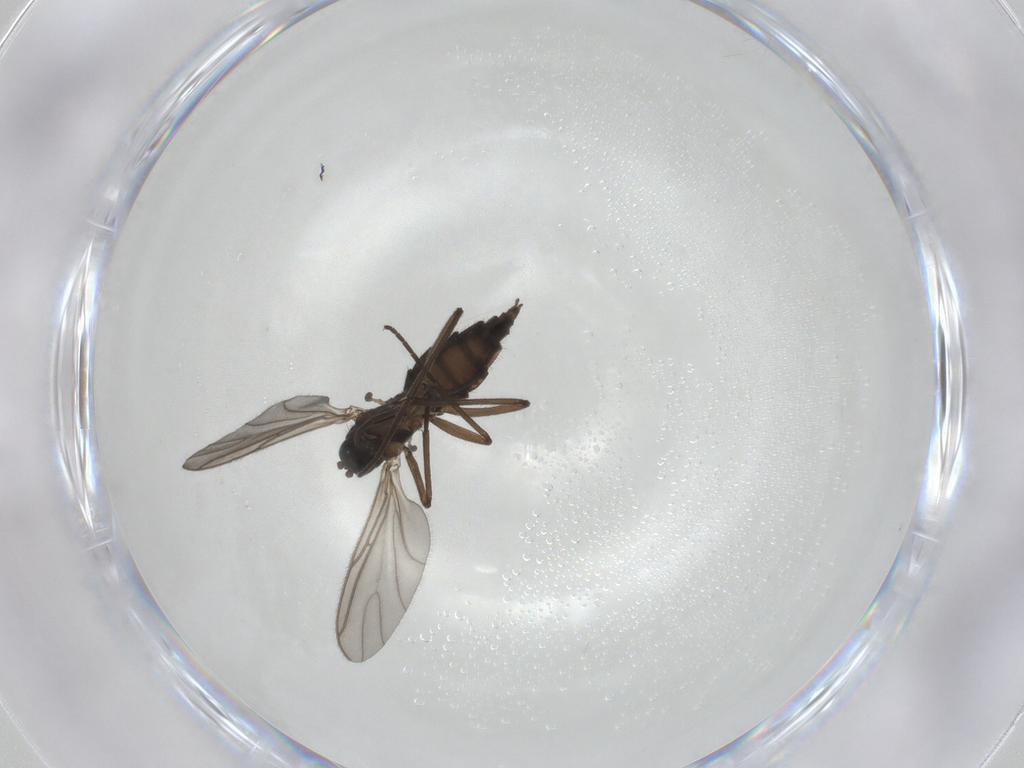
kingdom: Animalia
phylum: Arthropoda
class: Insecta
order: Diptera
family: Sciaridae
